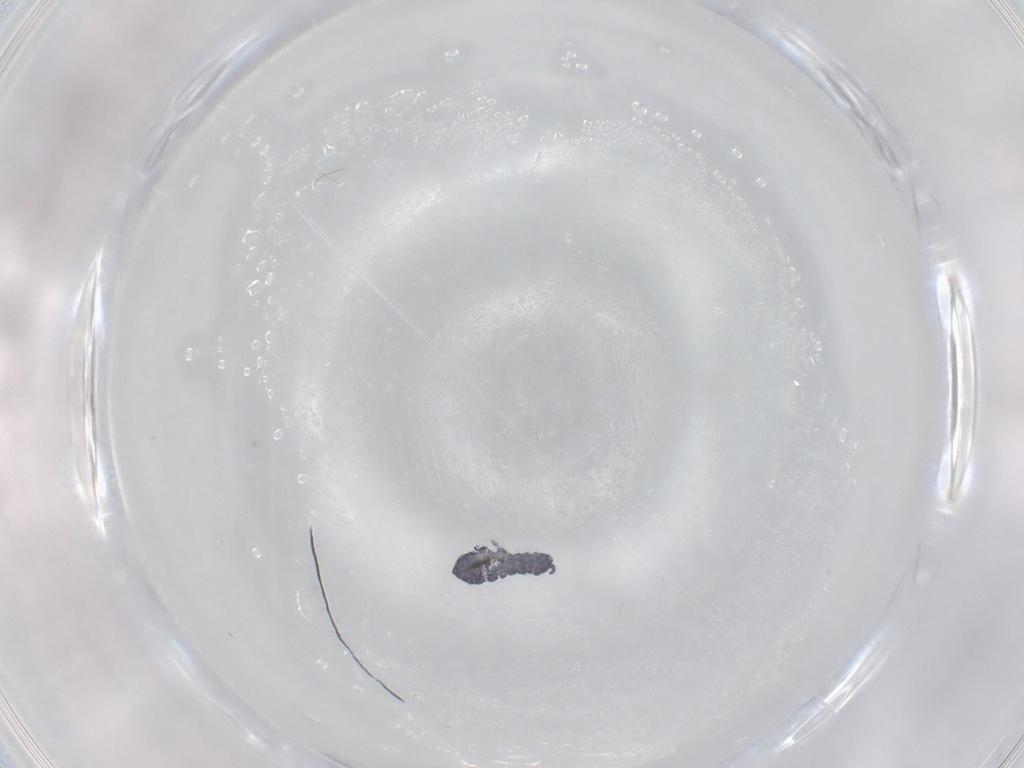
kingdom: Animalia
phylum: Arthropoda
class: Collembola
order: Poduromorpha
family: Hypogastruridae
